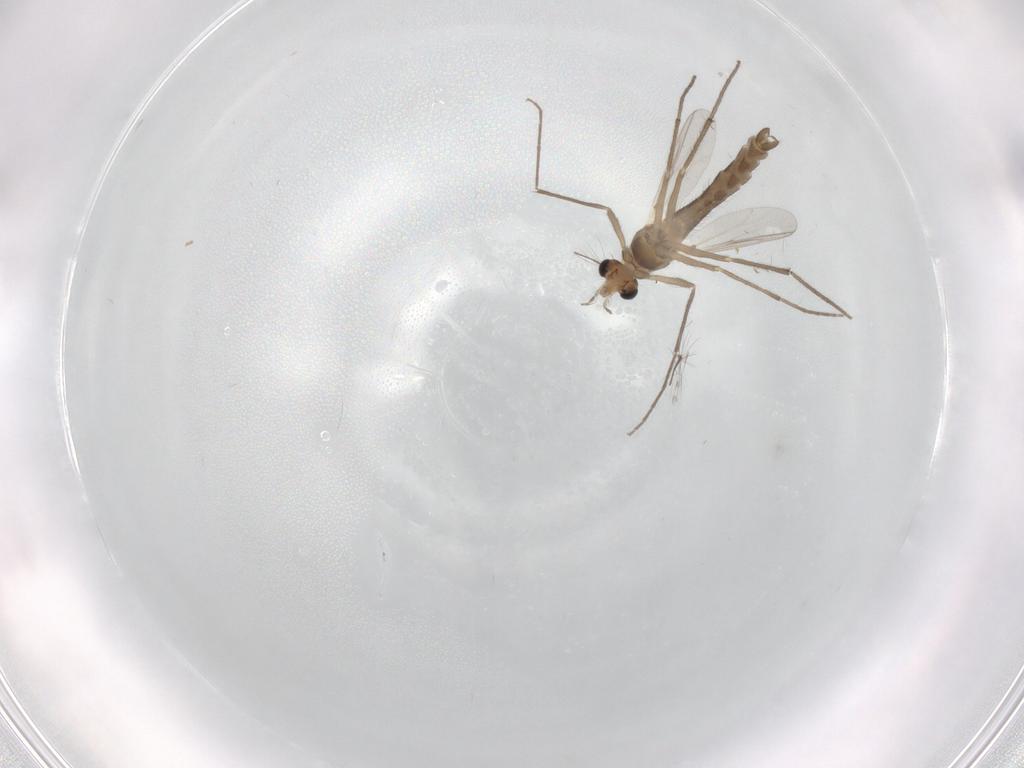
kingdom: Animalia
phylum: Arthropoda
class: Insecta
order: Diptera
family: Chironomidae
